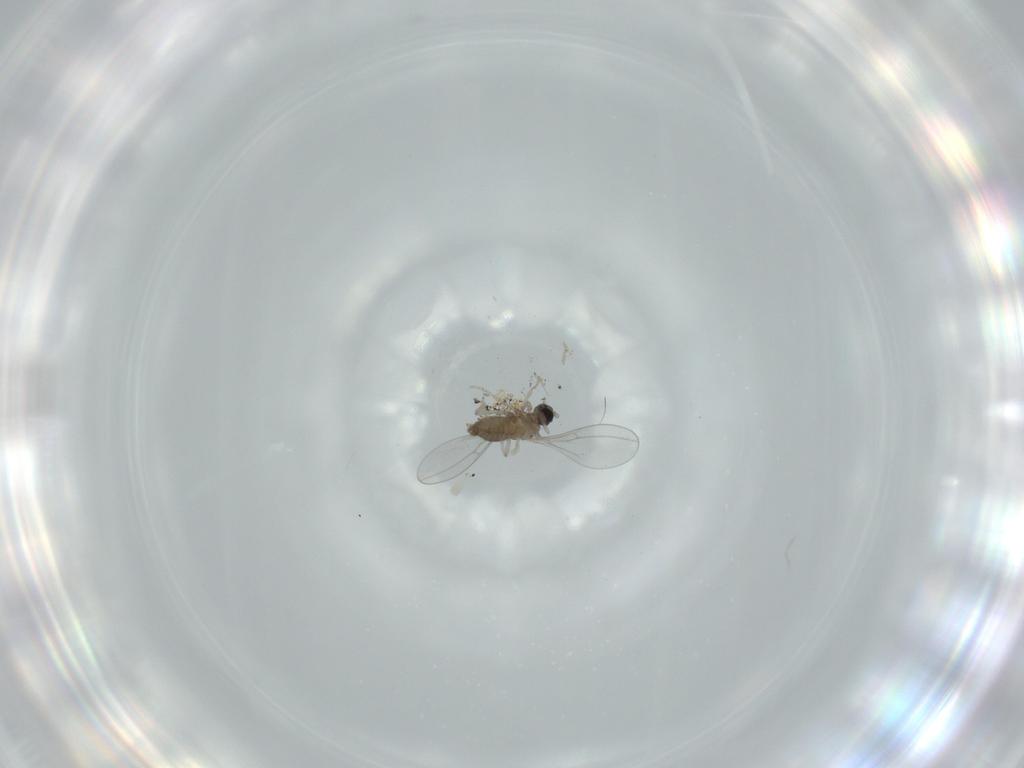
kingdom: Animalia
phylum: Arthropoda
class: Insecta
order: Diptera
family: Cecidomyiidae
